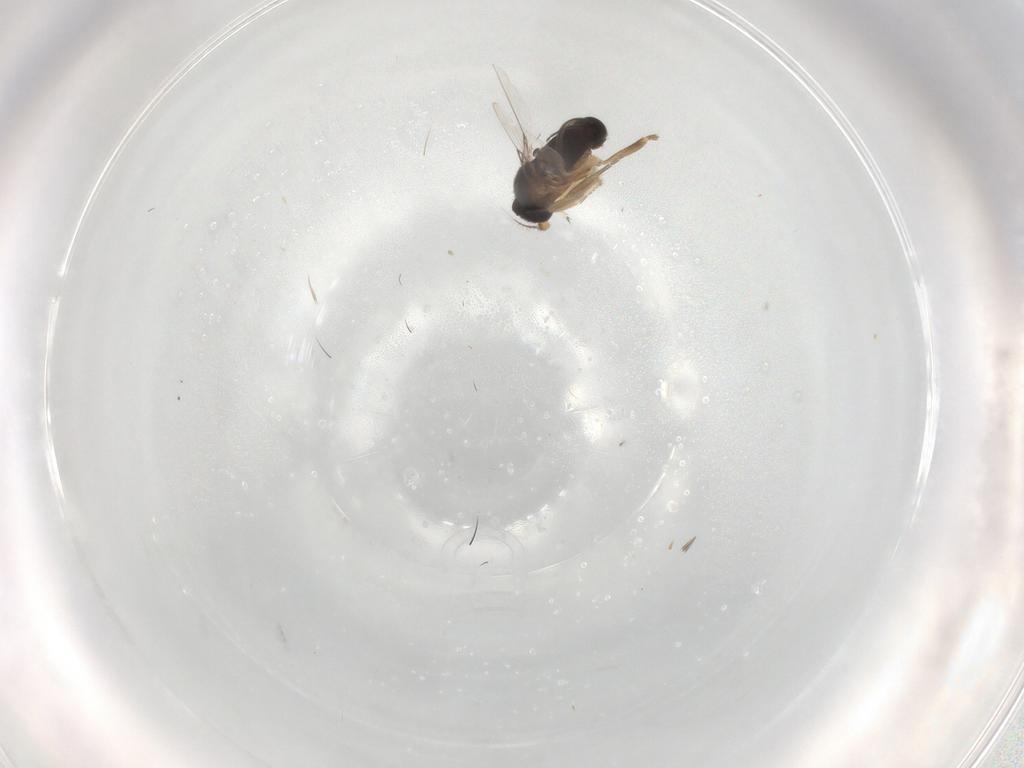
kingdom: Animalia
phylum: Arthropoda
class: Insecta
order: Diptera
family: Phoridae
